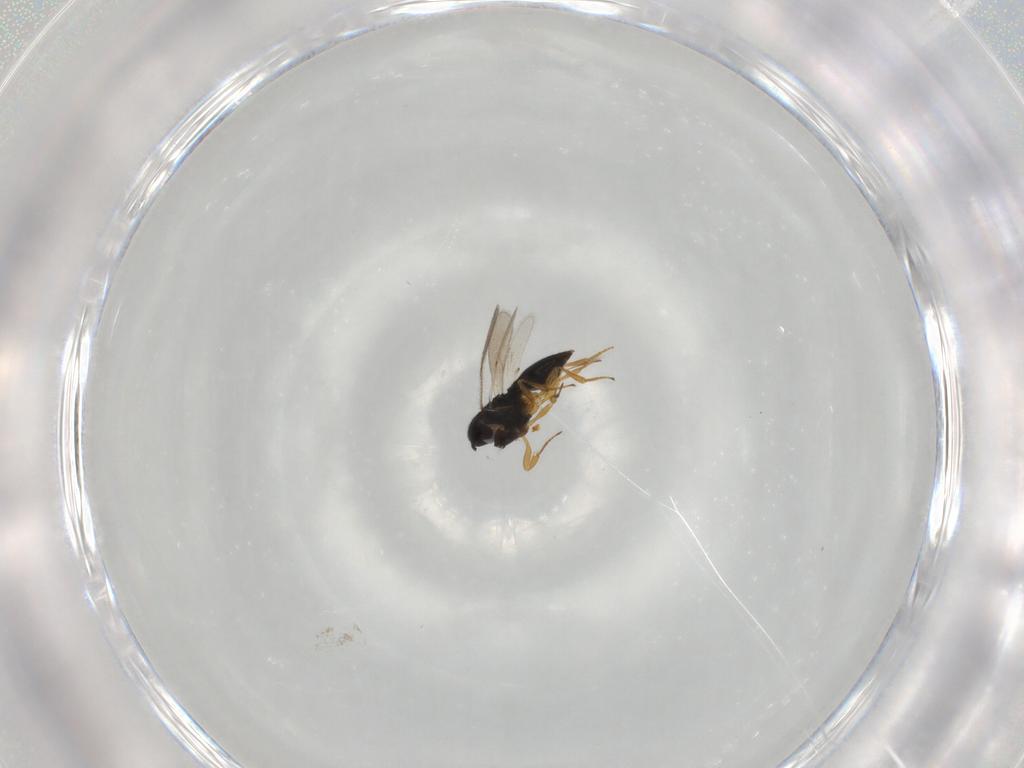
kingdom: Animalia
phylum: Arthropoda
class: Insecta
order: Hymenoptera
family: Scelionidae
